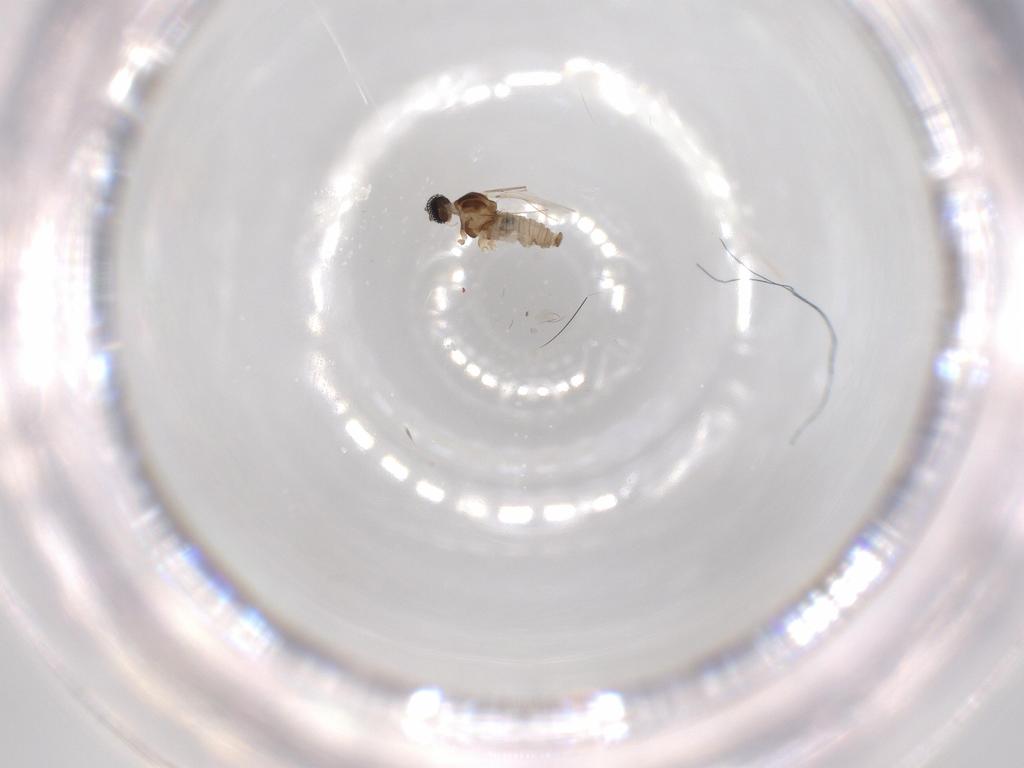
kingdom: Animalia
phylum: Arthropoda
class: Insecta
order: Diptera
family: Cecidomyiidae
